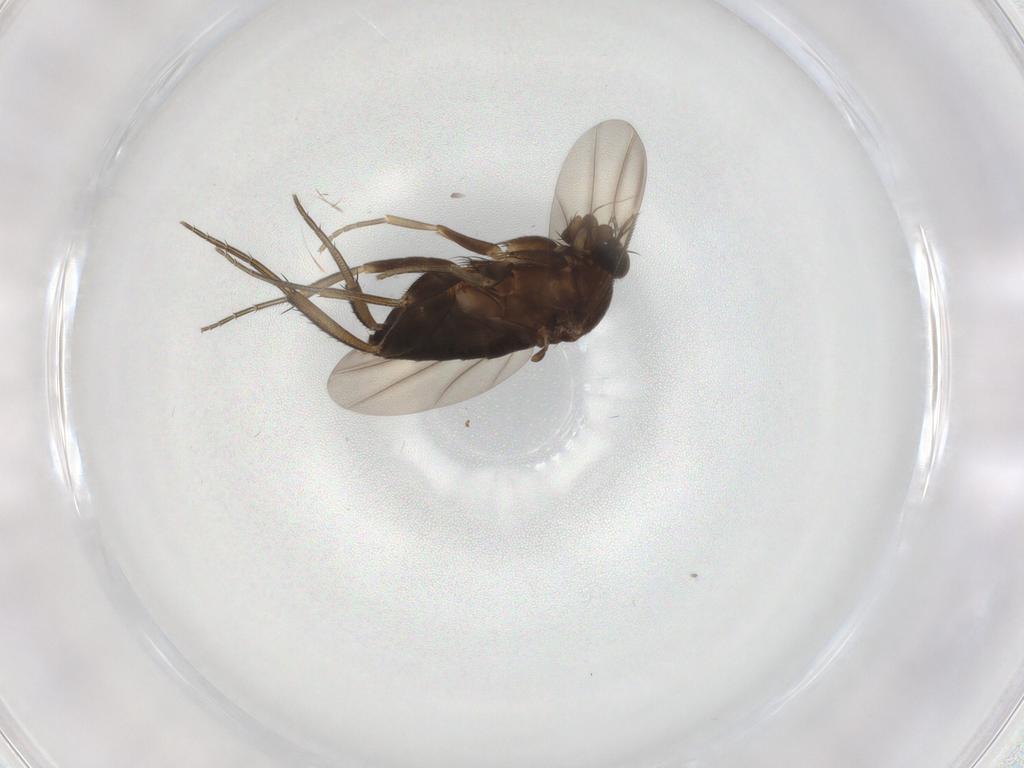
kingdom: Animalia
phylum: Arthropoda
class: Insecta
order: Diptera
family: Phoridae
